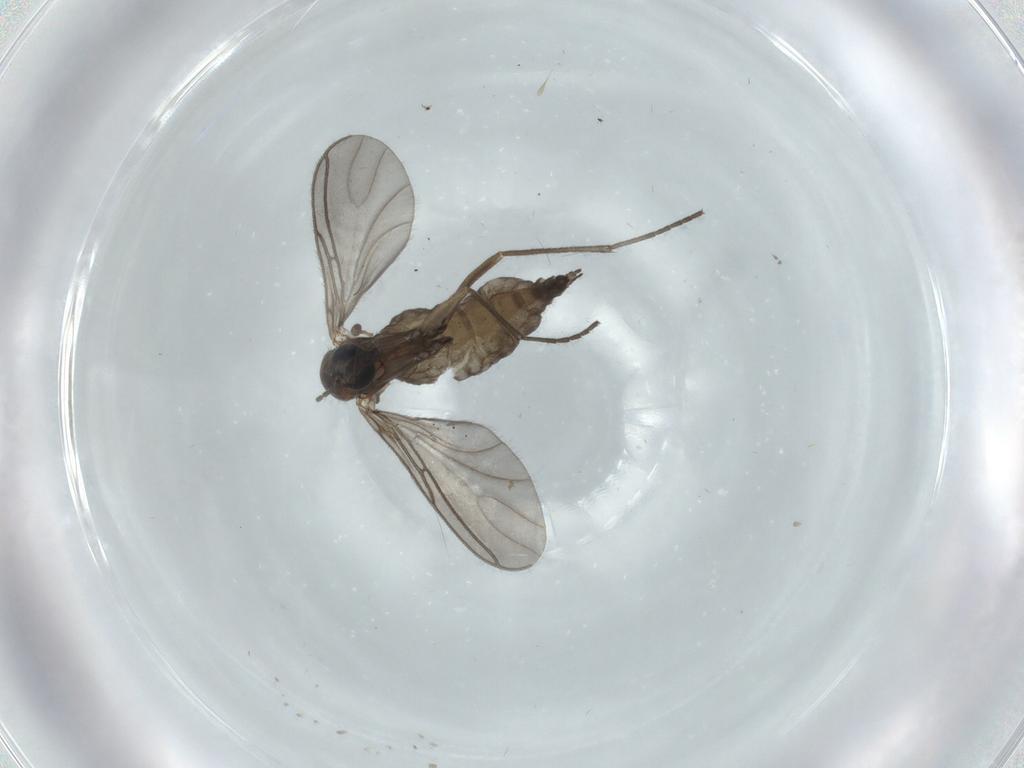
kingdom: Animalia
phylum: Arthropoda
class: Insecta
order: Diptera
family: Sciaridae
